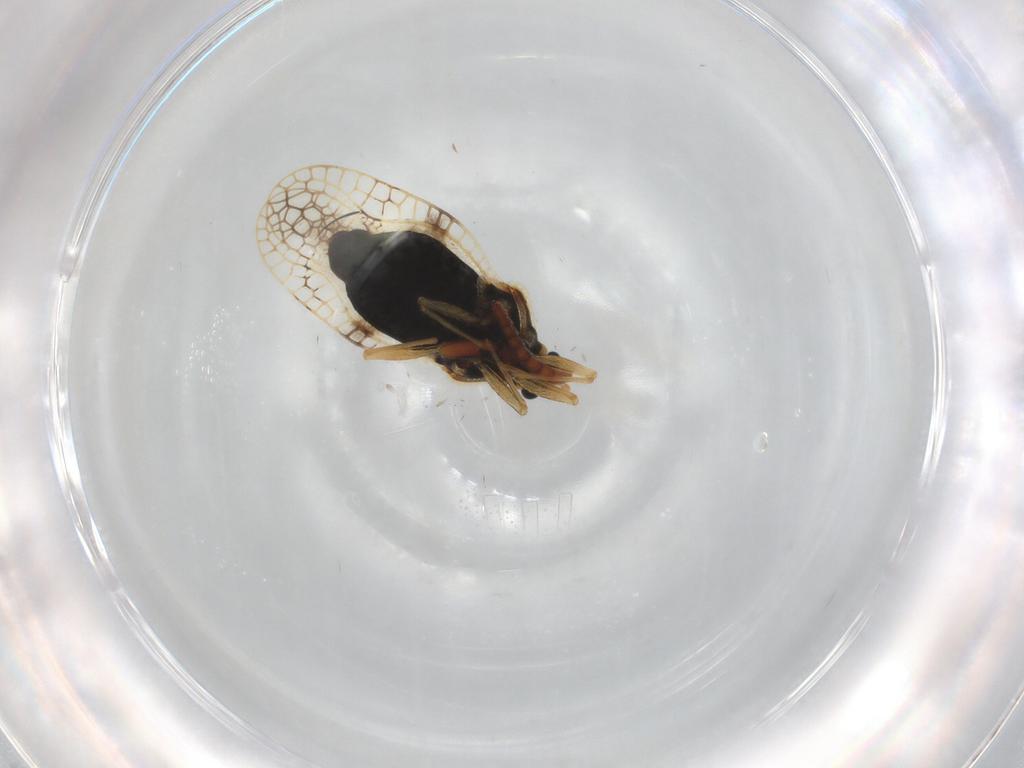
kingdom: Animalia
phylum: Arthropoda
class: Insecta
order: Hemiptera
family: Tingidae
